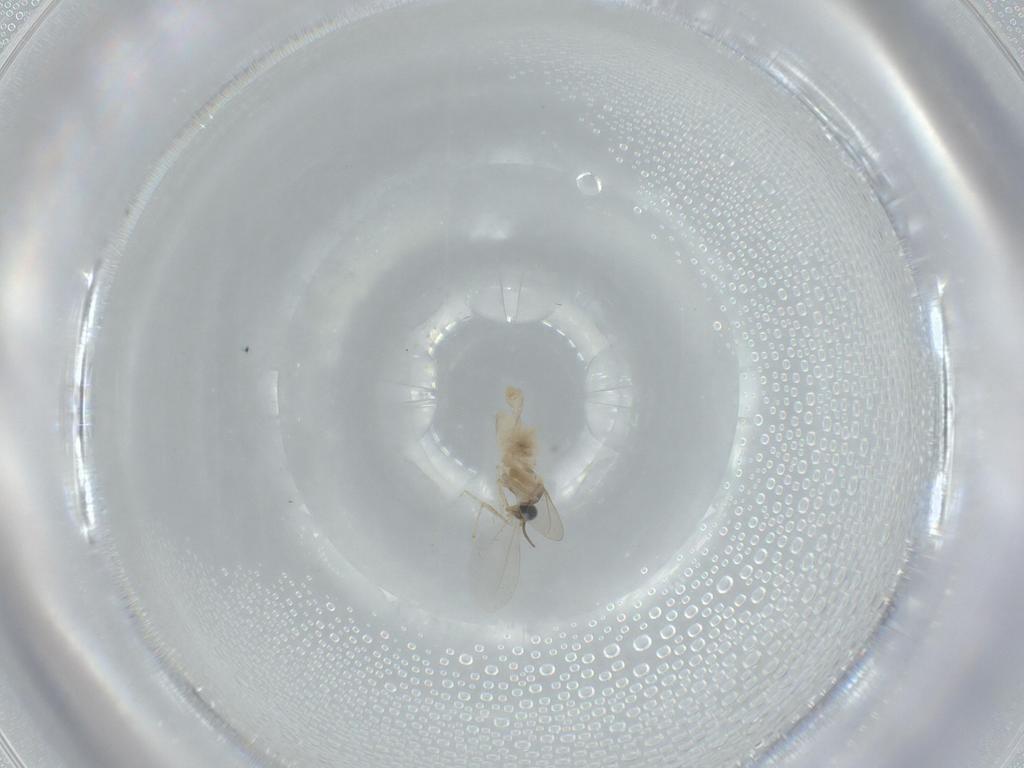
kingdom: Animalia
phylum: Arthropoda
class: Insecta
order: Diptera
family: Cecidomyiidae
